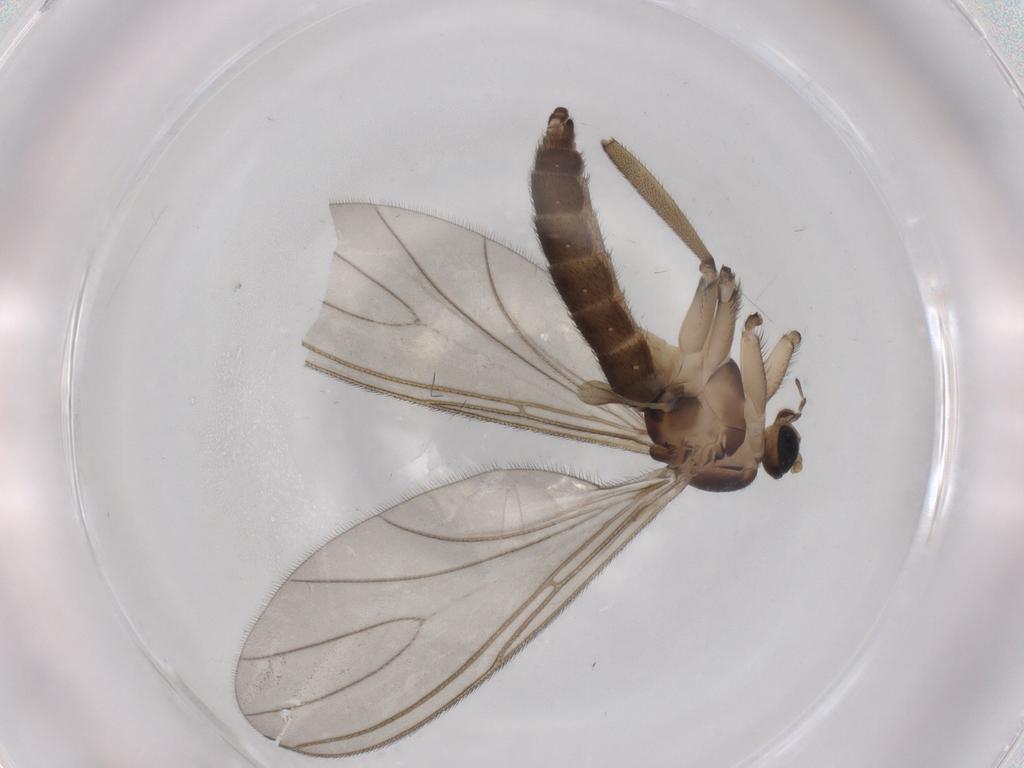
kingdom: Animalia
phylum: Arthropoda
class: Insecta
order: Diptera
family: Sciaridae
